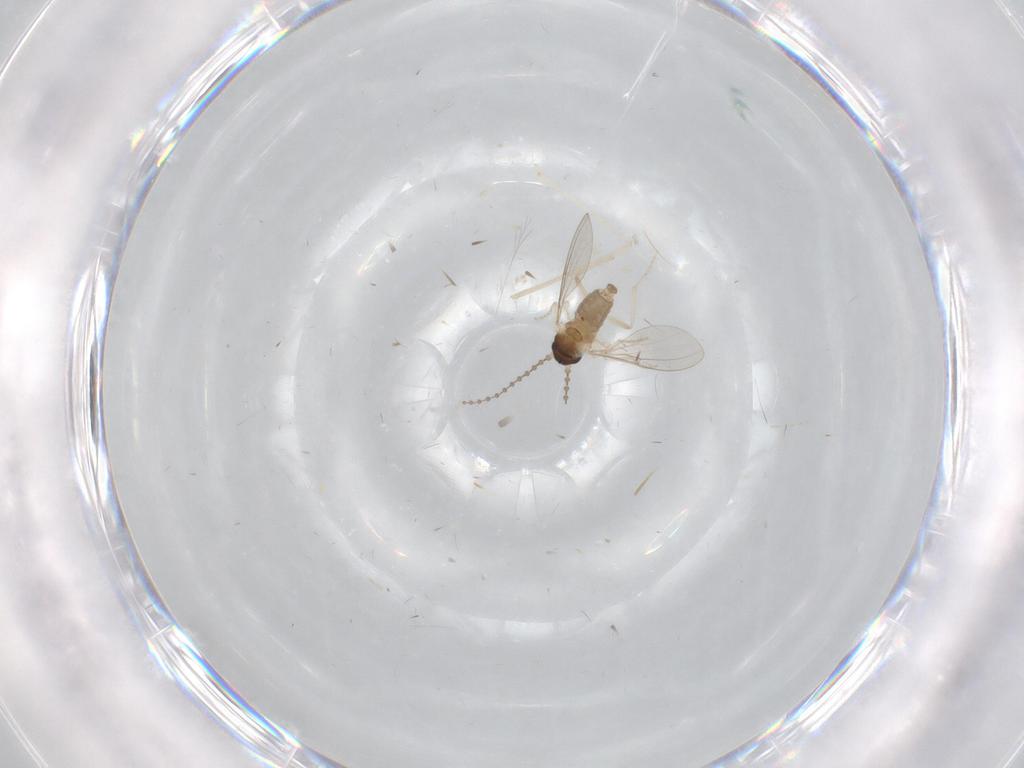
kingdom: Animalia
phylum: Arthropoda
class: Insecta
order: Diptera
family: Cecidomyiidae
